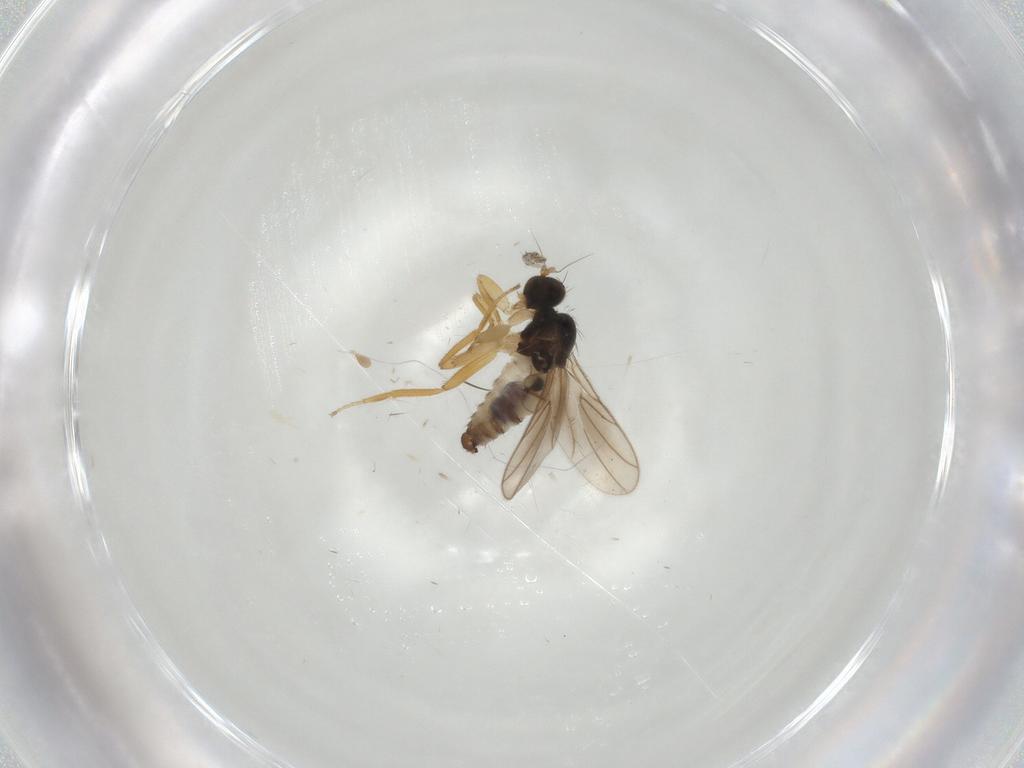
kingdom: Animalia
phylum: Arthropoda
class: Insecta
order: Diptera
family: Hybotidae
